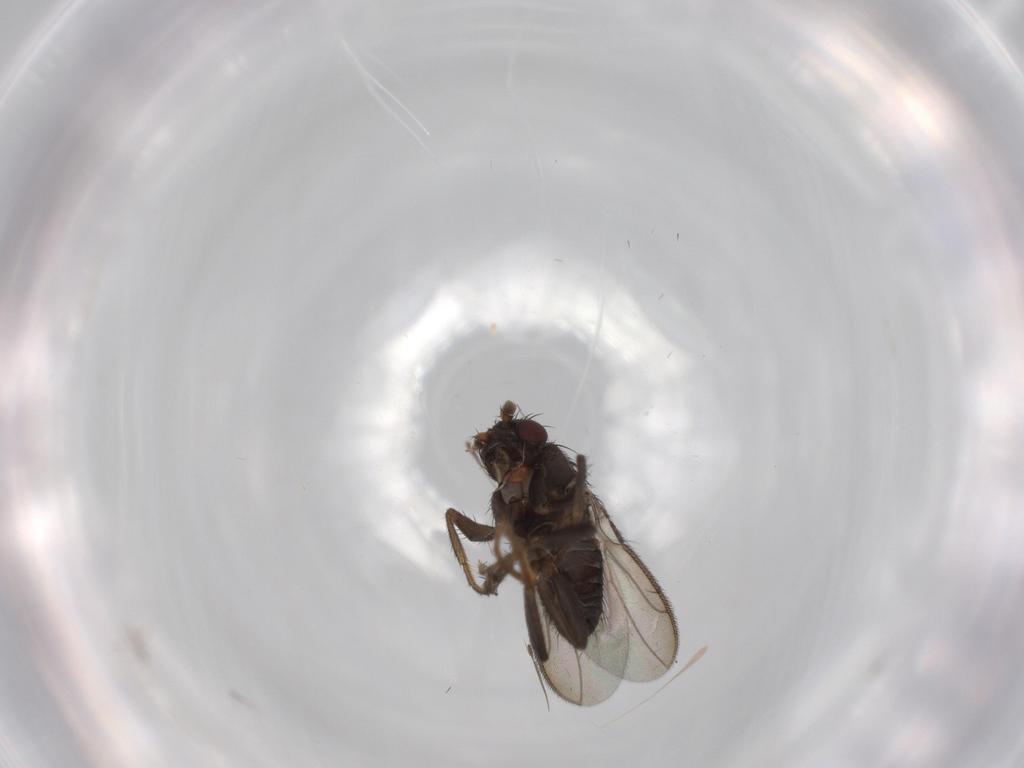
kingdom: Animalia
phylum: Arthropoda
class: Insecta
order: Diptera
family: Sphaeroceridae
